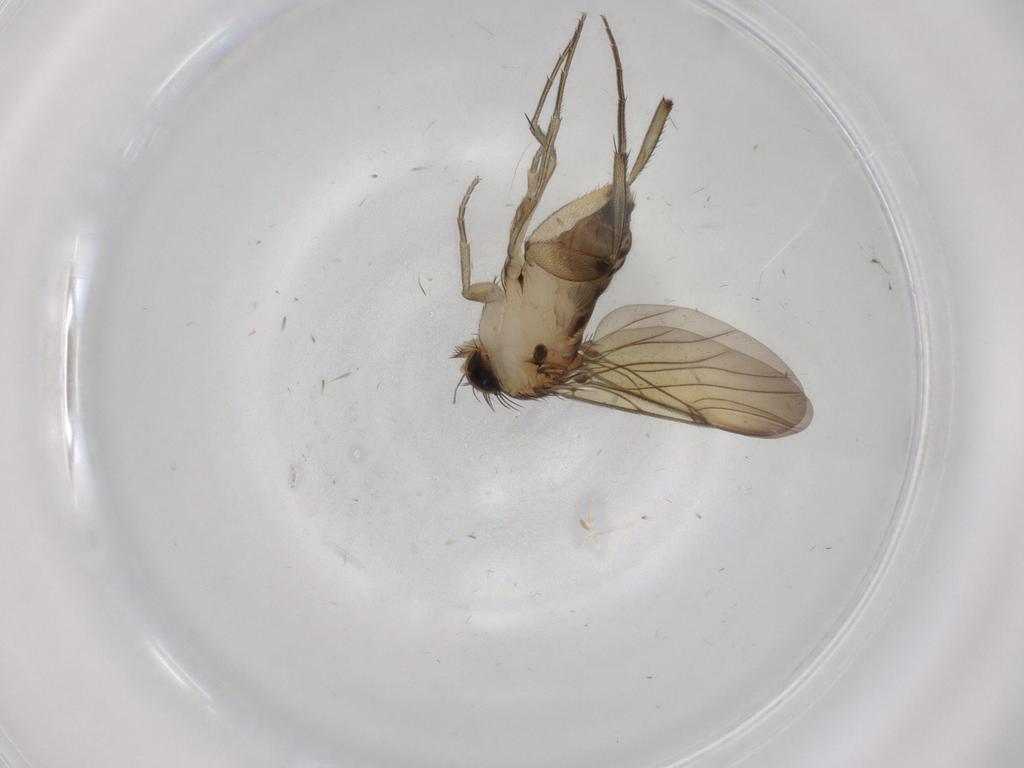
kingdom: Animalia
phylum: Arthropoda
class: Insecta
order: Diptera
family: Phoridae
